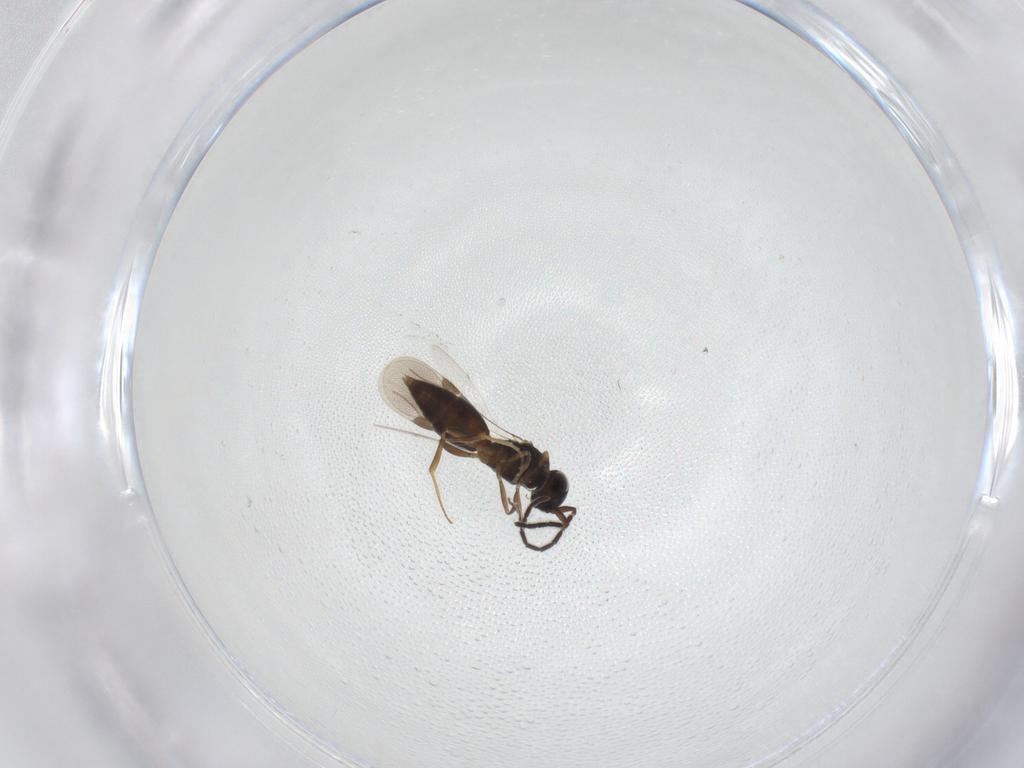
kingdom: Animalia
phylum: Arthropoda
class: Insecta
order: Hymenoptera
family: Megaspilidae
